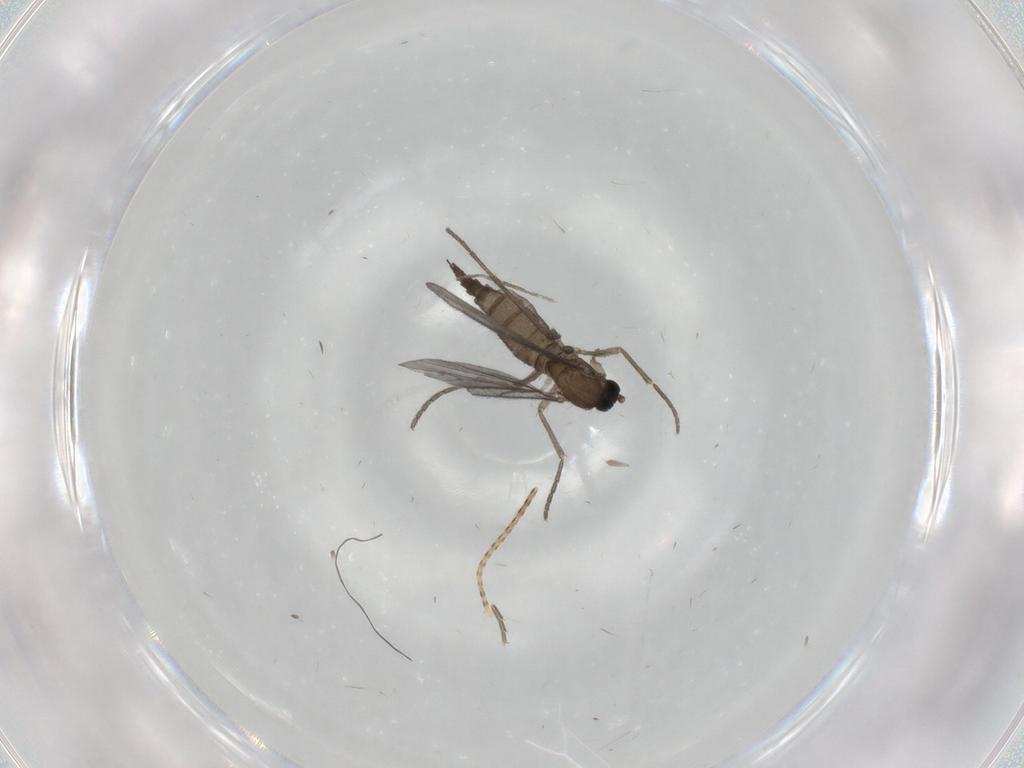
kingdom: Animalia
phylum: Arthropoda
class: Insecta
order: Diptera
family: Sciaridae
